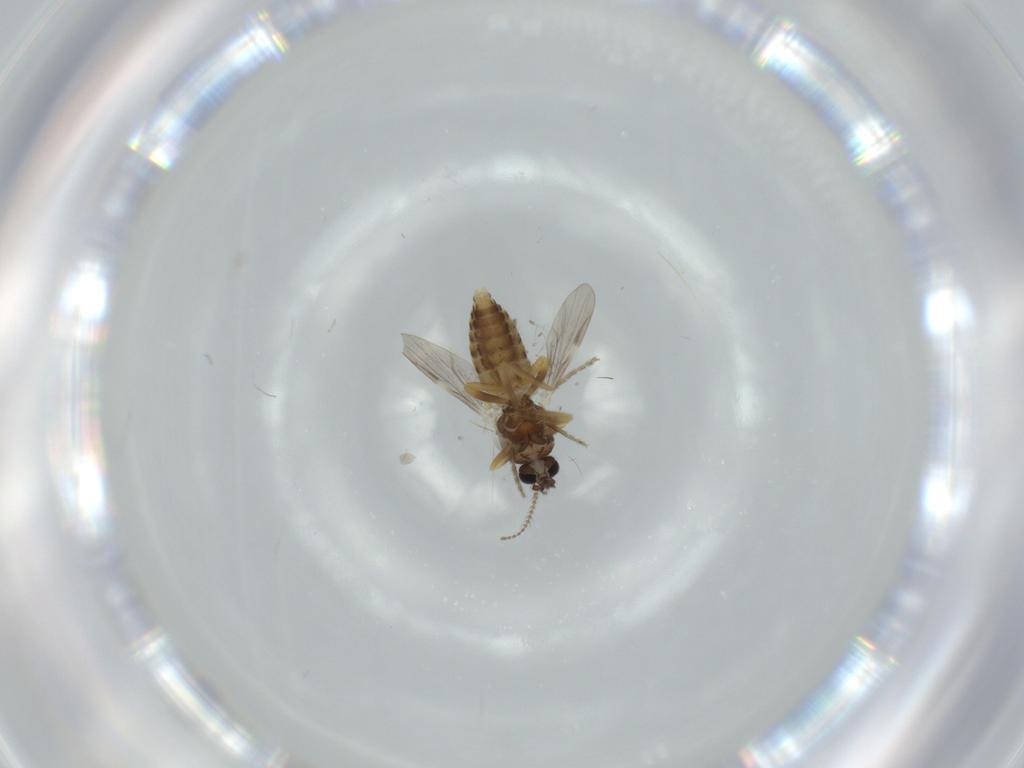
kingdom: Animalia
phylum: Arthropoda
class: Insecta
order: Diptera
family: Ceratopogonidae
